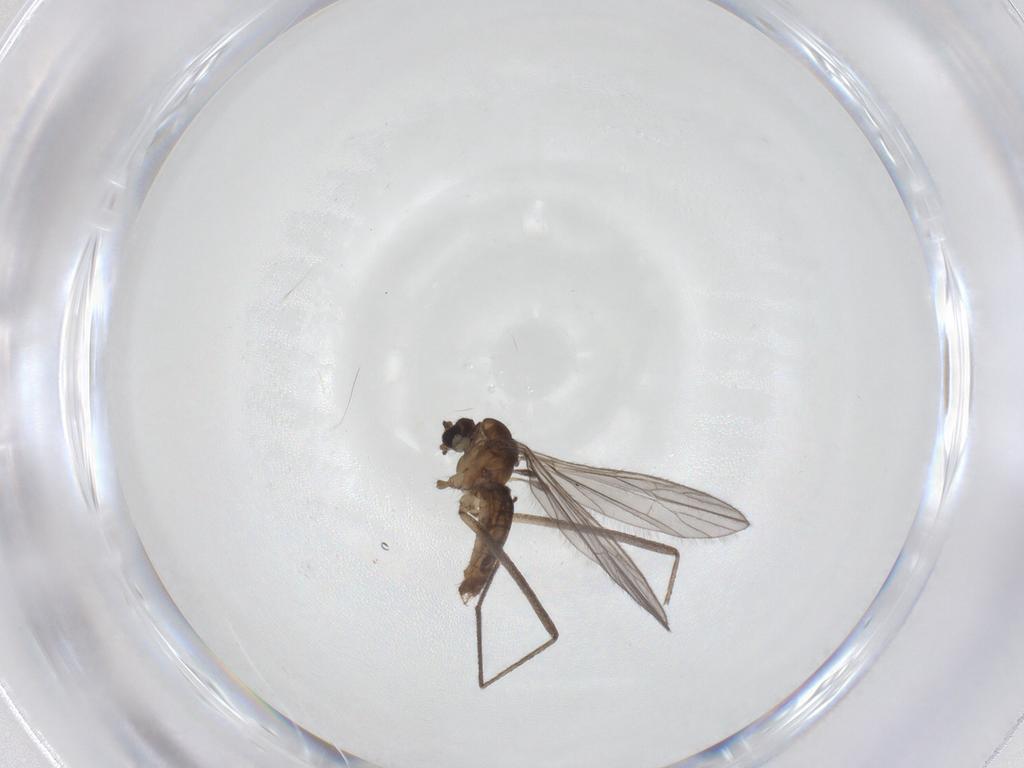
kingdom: Animalia
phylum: Arthropoda
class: Insecta
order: Diptera
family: Limoniidae
